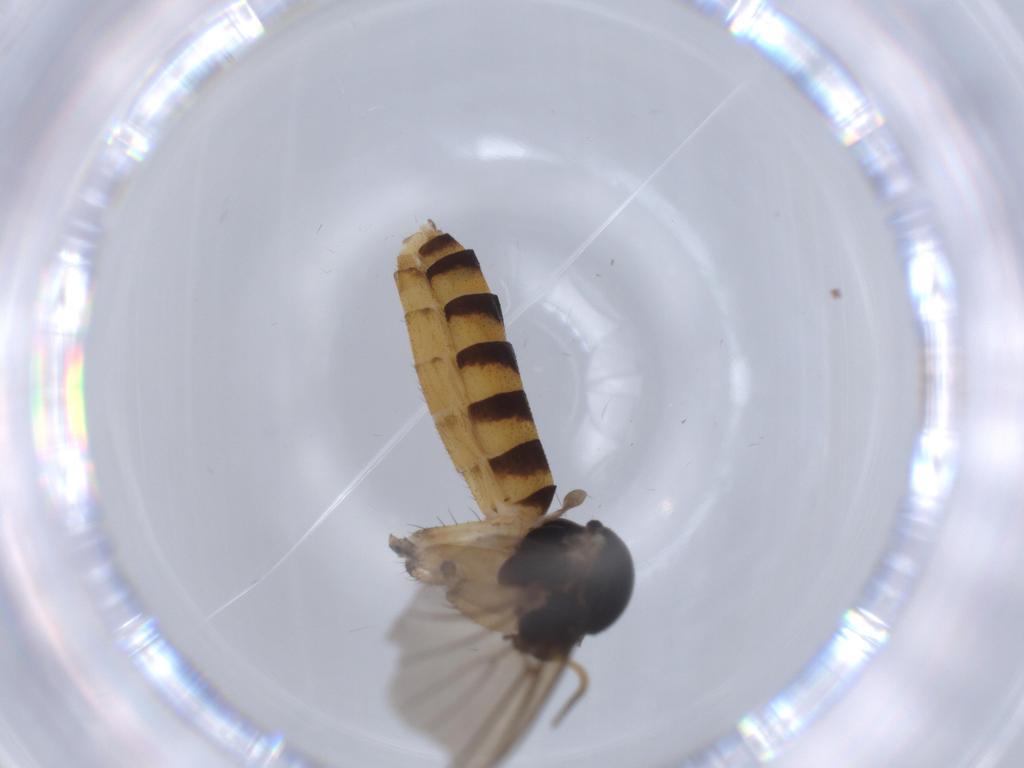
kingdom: Animalia
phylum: Arthropoda
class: Insecta
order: Diptera
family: Mycetophilidae
